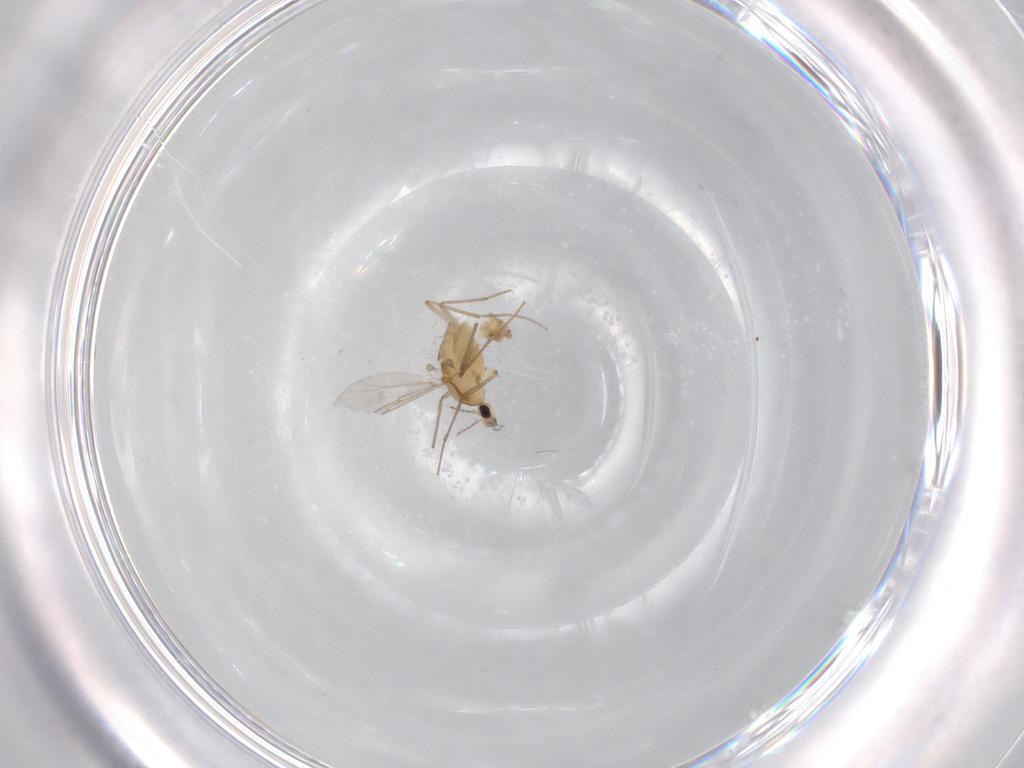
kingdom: Animalia
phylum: Arthropoda
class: Insecta
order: Diptera
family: Chironomidae
